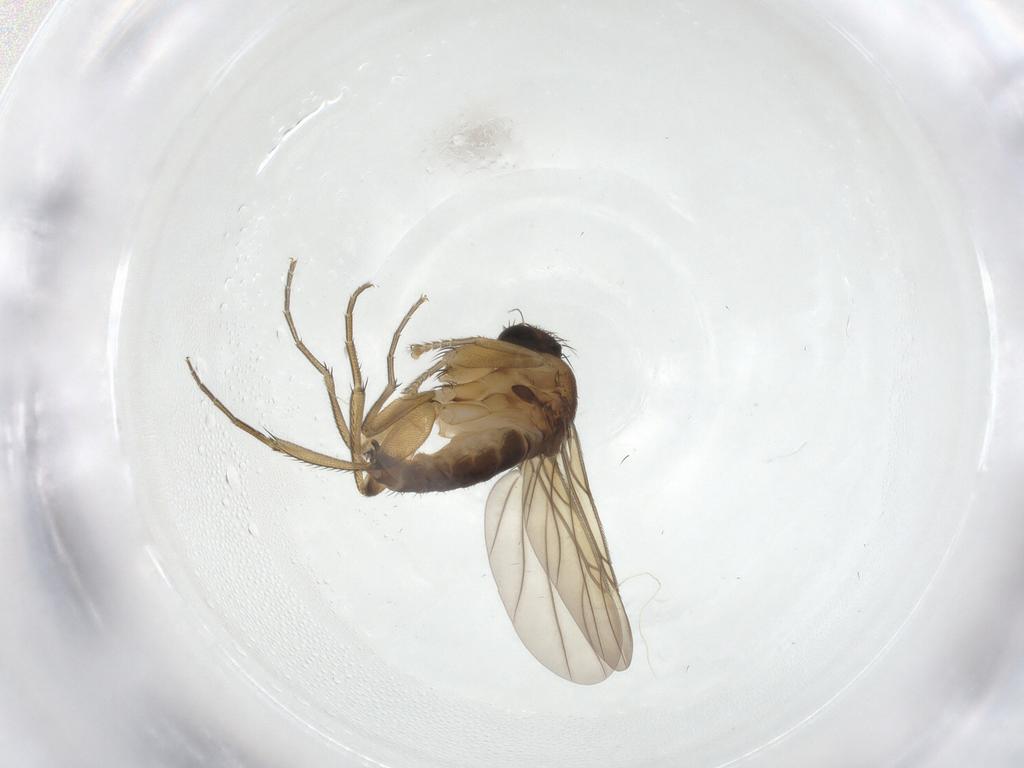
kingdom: Animalia
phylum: Arthropoda
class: Insecta
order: Diptera
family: Phoridae
